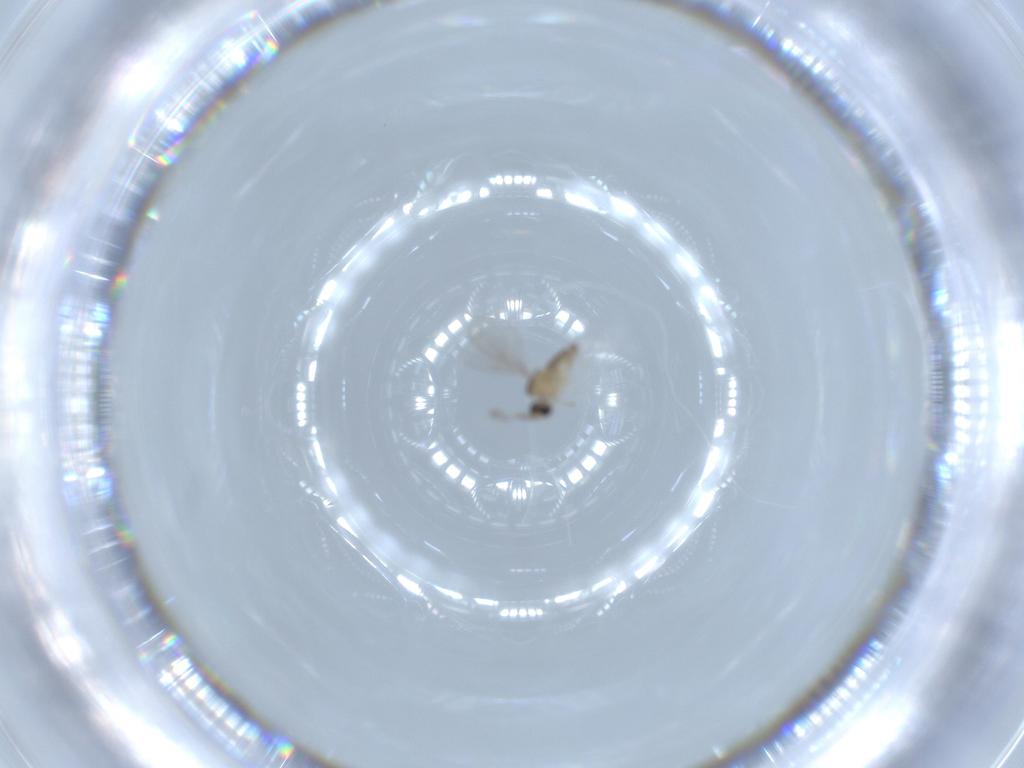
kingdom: Animalia
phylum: Arthropoda
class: Insecta
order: Diptera
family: Cecidomyiidae
